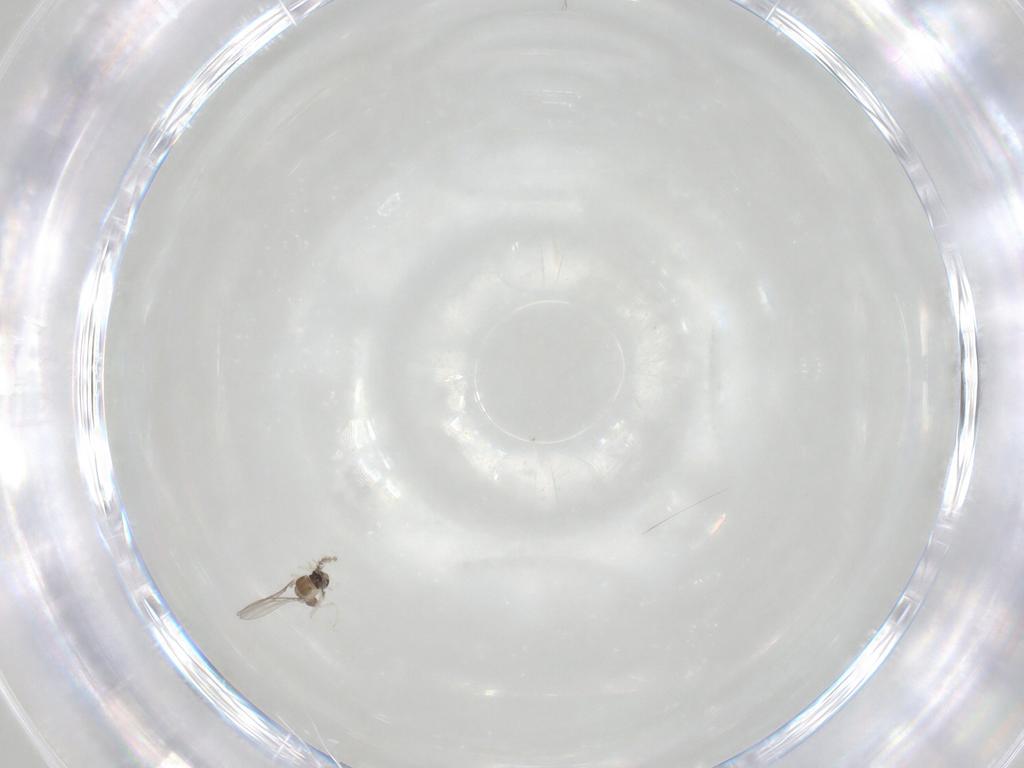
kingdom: Animalia
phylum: Arthropoda
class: Insecta
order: Diptera
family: Cecidomyiidae
